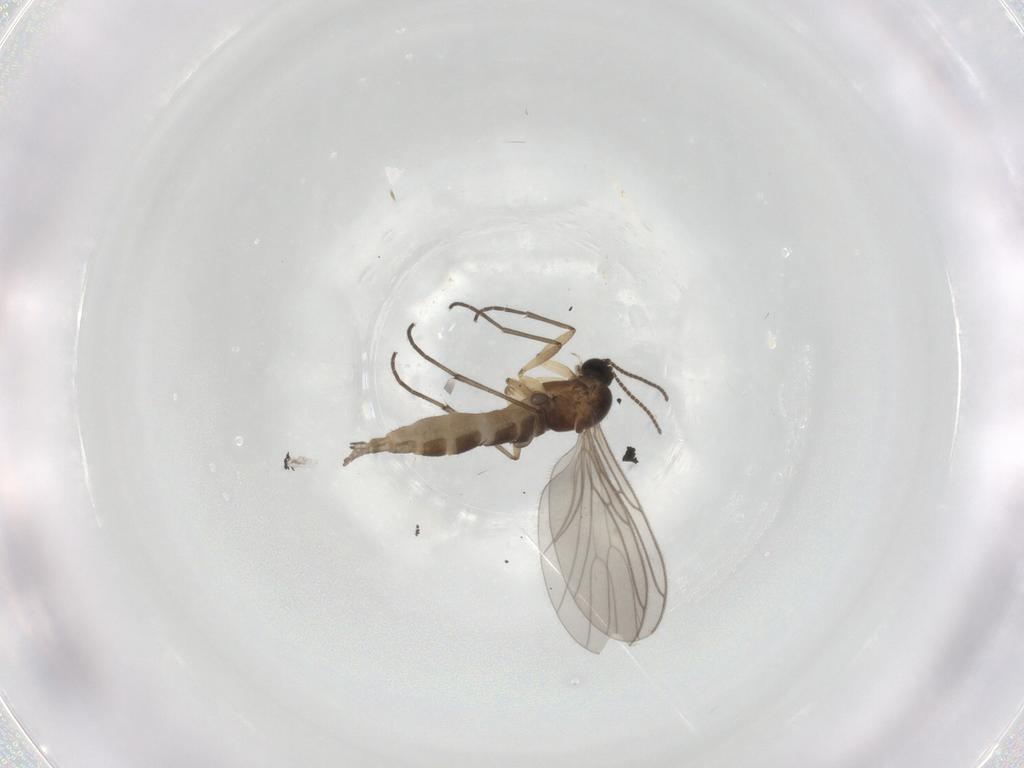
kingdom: Animalia
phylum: Arthropoda
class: Insecta
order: Diptera
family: Sciaridae
